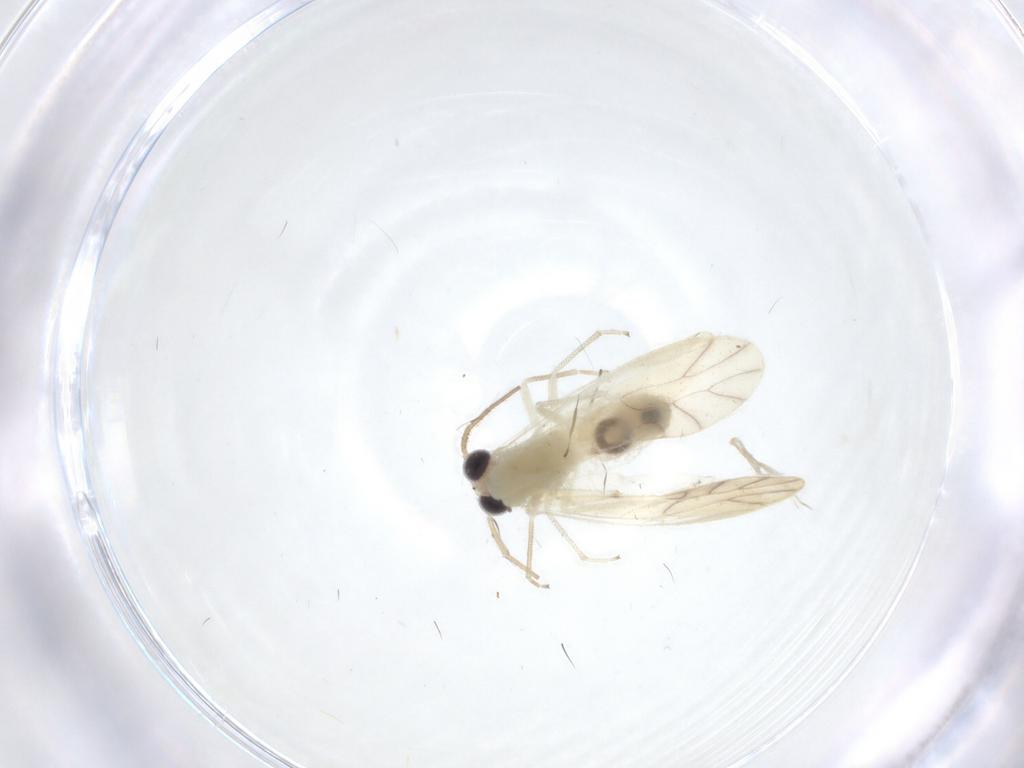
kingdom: Animalia
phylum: Arthropoda
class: Insecta
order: Psocodea
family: Caeciliusidae
